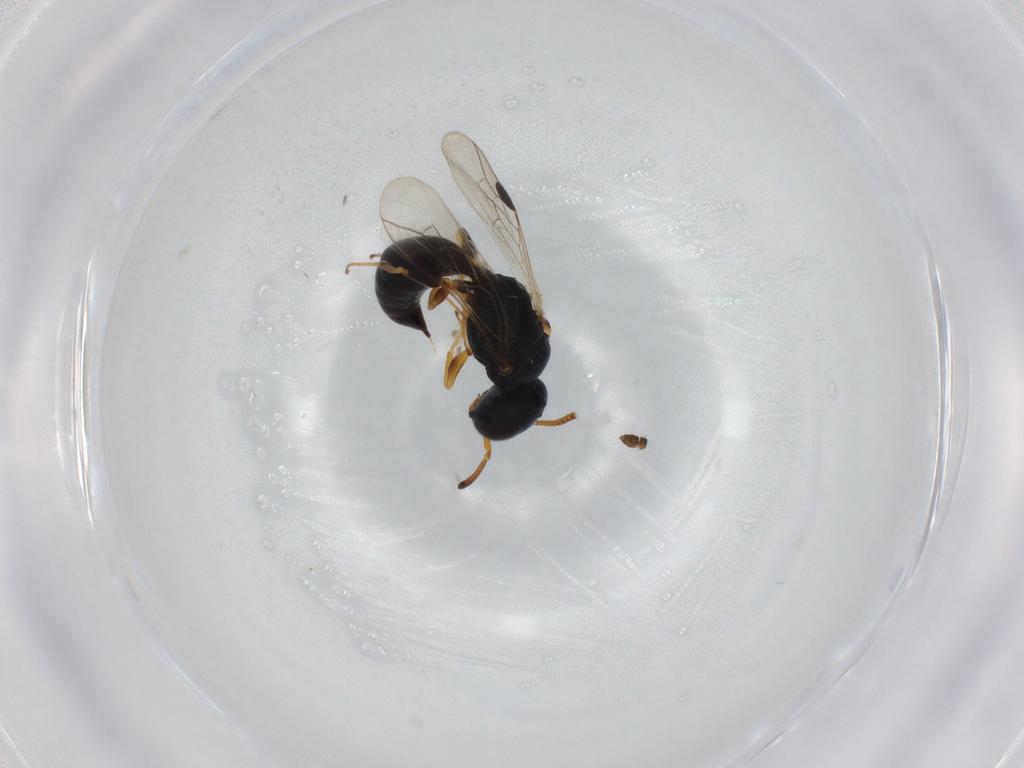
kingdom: Animalia
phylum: Arthropoda
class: Insecta
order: Hymenoptera
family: Pemphredonidae
